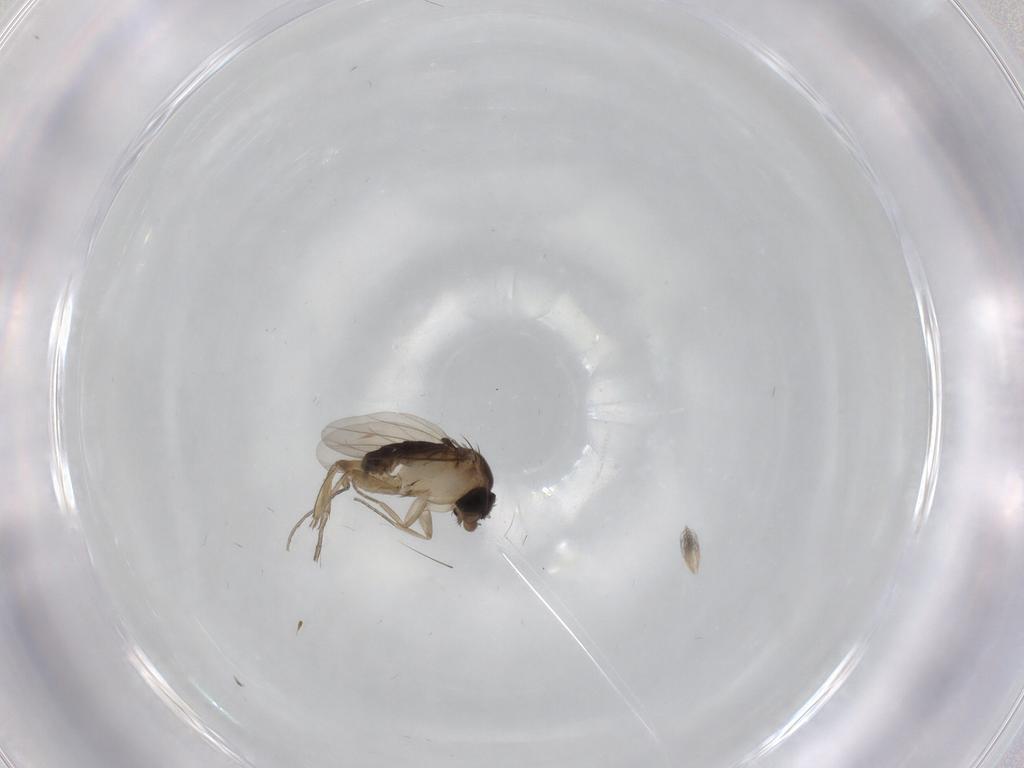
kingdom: Animalia
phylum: Arthropoda
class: Insecta
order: Diptera
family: Phoridae
